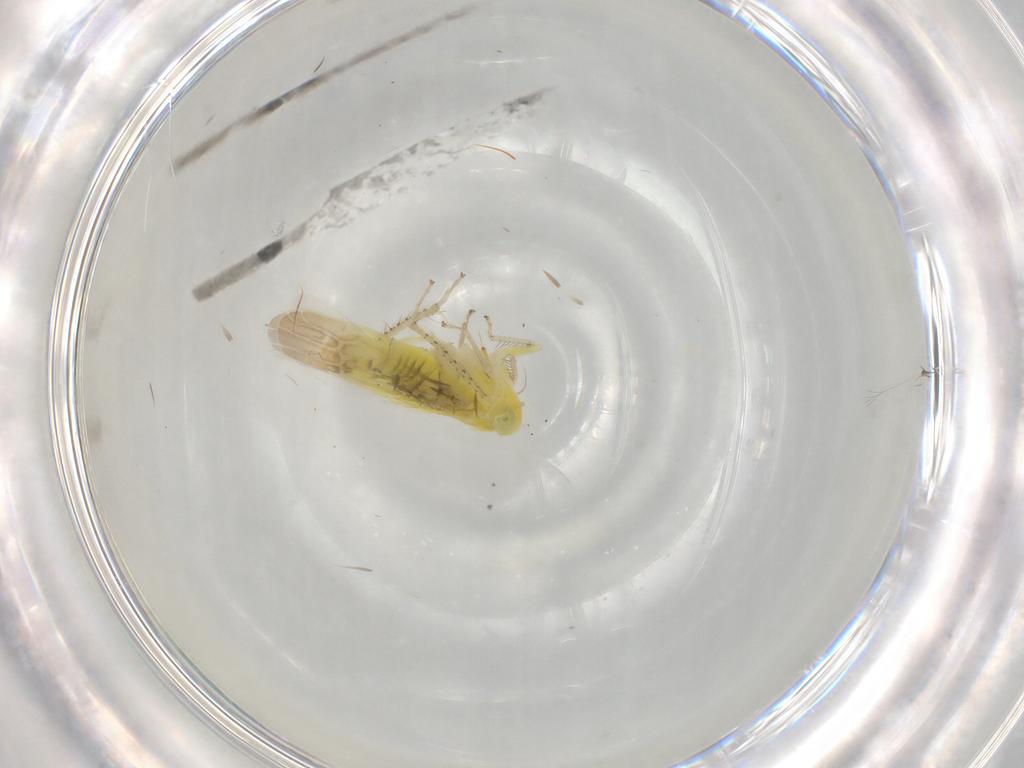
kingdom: Animalia
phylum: Arthropoda
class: Insecta
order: Hemiptera
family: Cicadellidae
